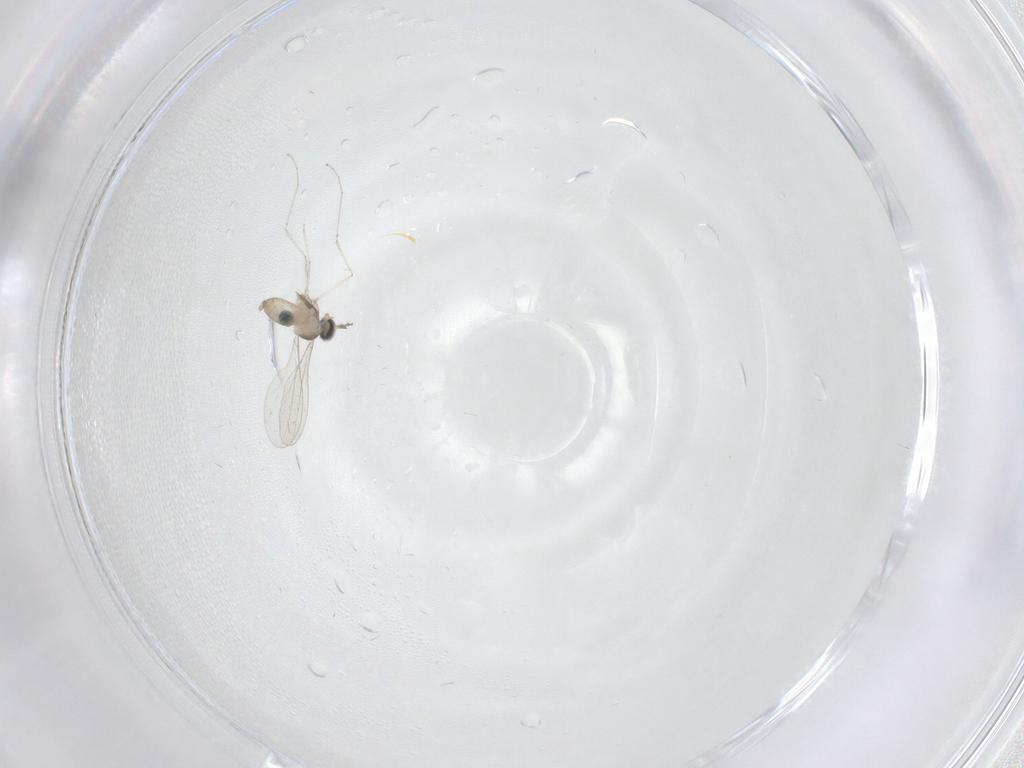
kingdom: Animalia
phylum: Arthropoda
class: Insecta
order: Diptera
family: Cecidomyiidae
